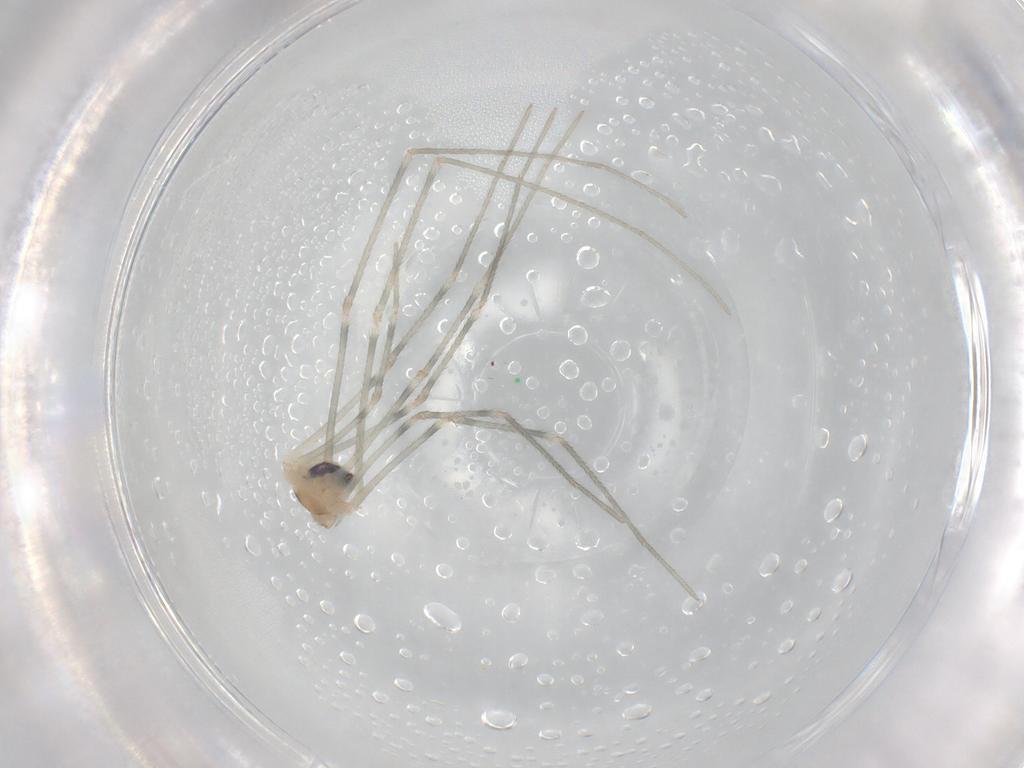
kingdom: Animalia
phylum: Arthropoda
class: Arachnida
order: Araneae
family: Pholcidae
